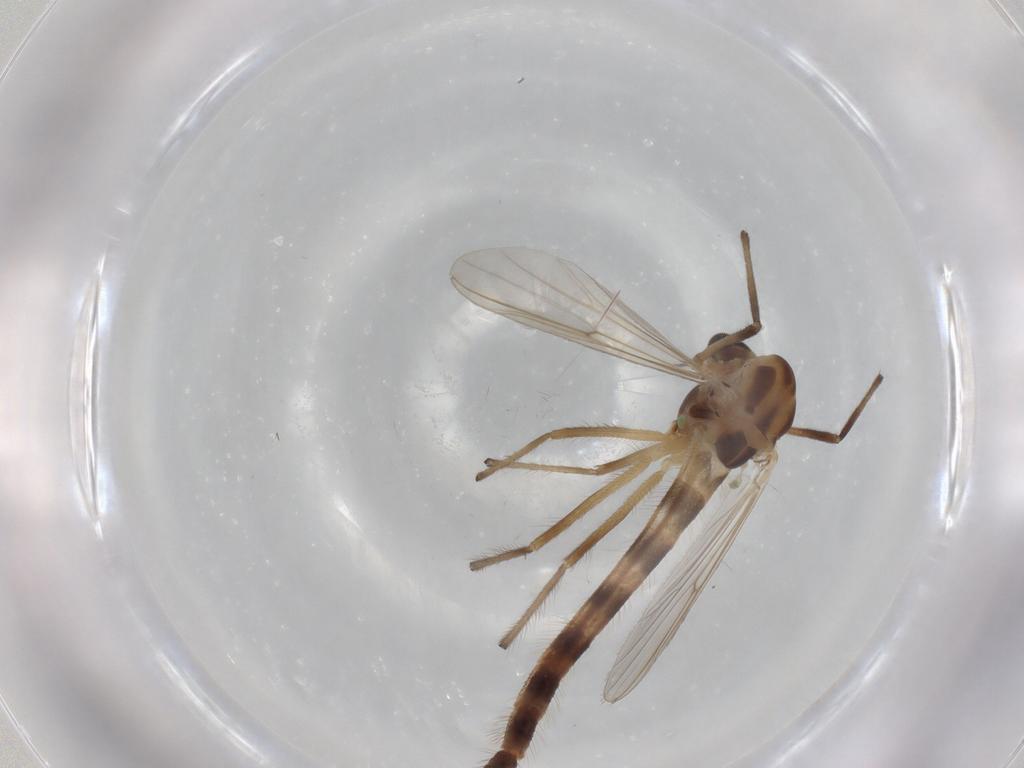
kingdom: Animalia
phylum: Arthropoda
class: Insecta
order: Diptera
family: Phoridae
